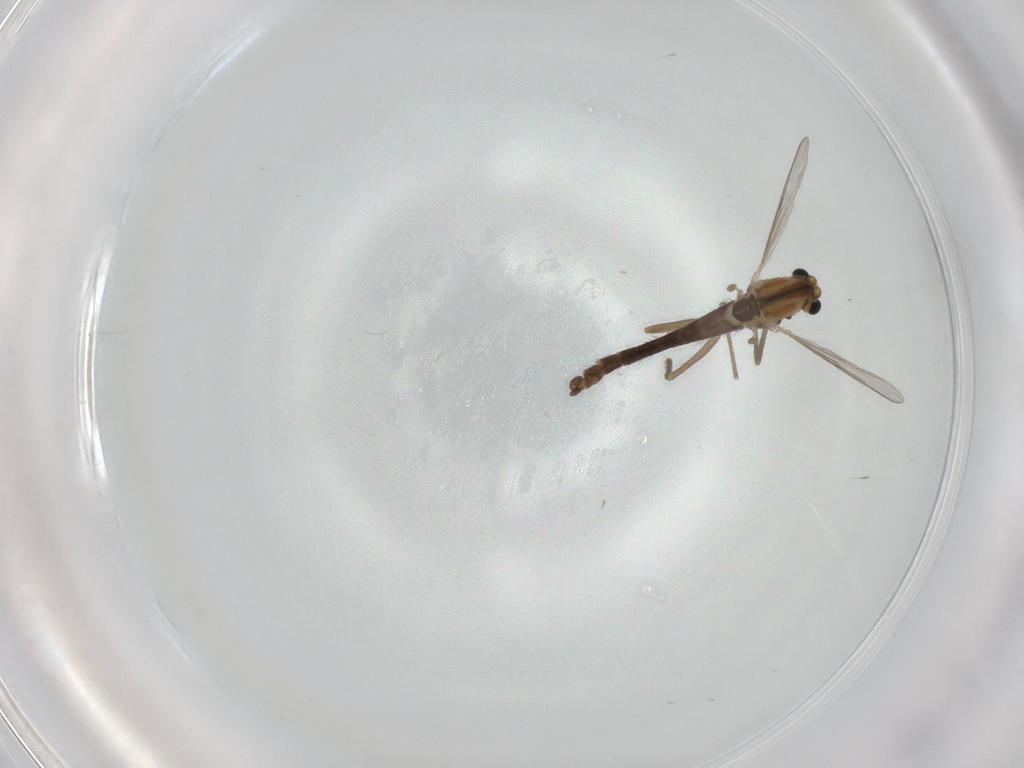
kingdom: Animalia
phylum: Arthropoda
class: Insecta
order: Diptera
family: Chironomidae
